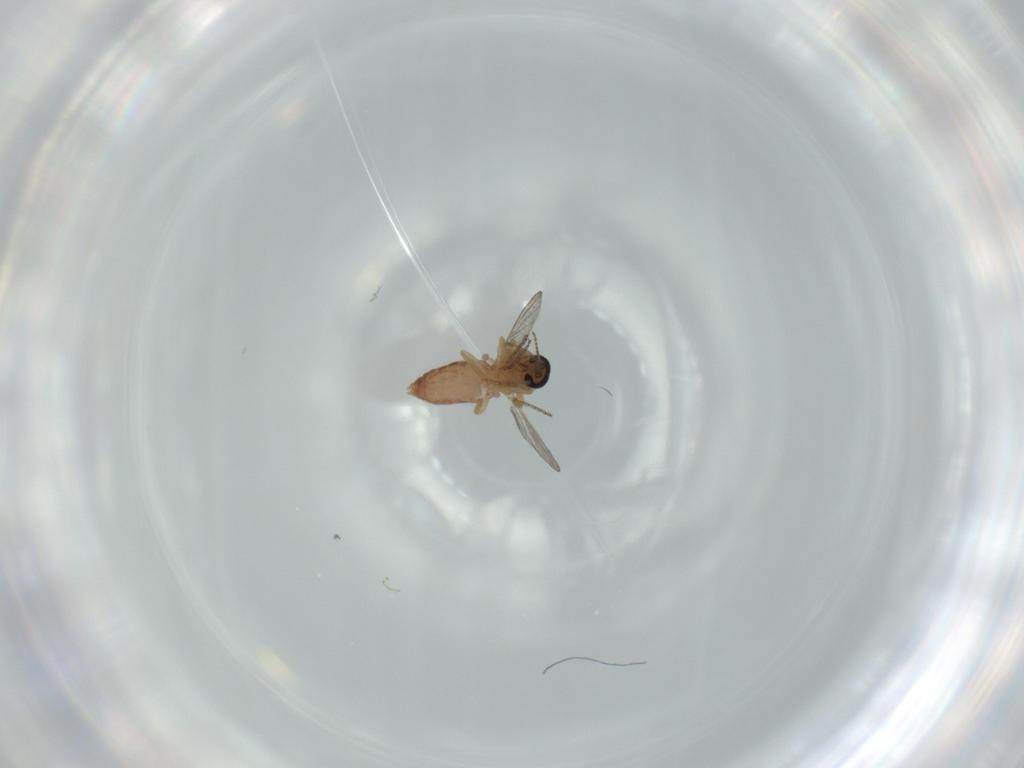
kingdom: Animalia
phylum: Arthropoda
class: Insecta
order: Diptera
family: Ceratopogonidae
